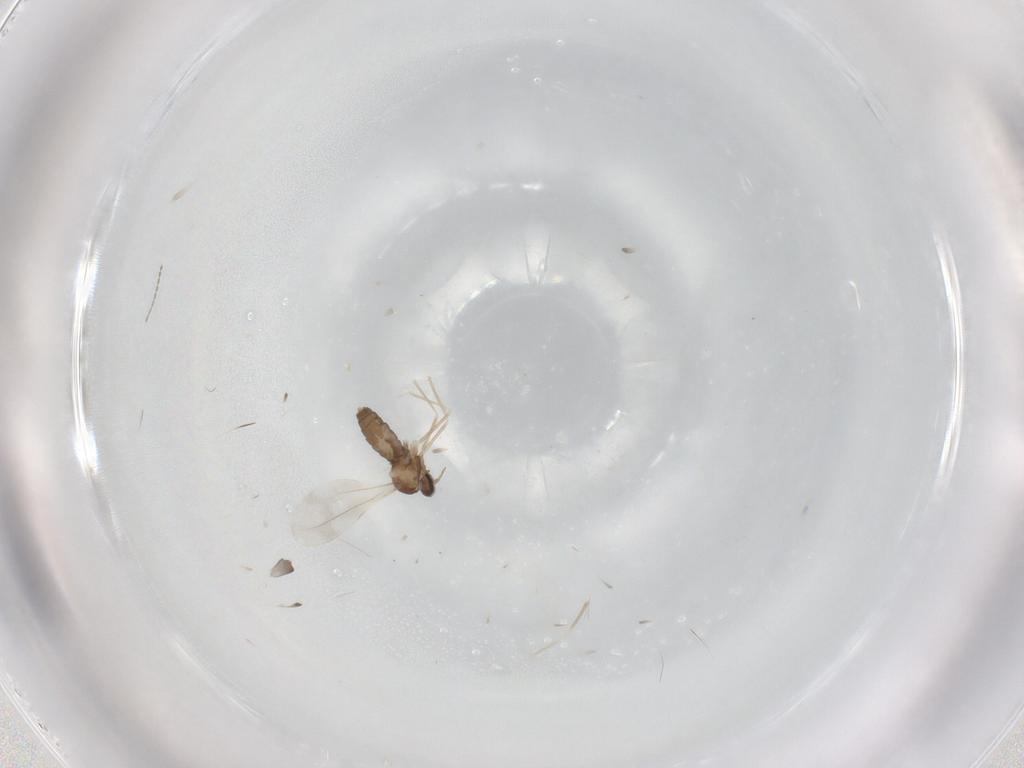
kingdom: Animalia
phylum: Arthropoda
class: Insecta
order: Diptera
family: Cecidomyiidae
